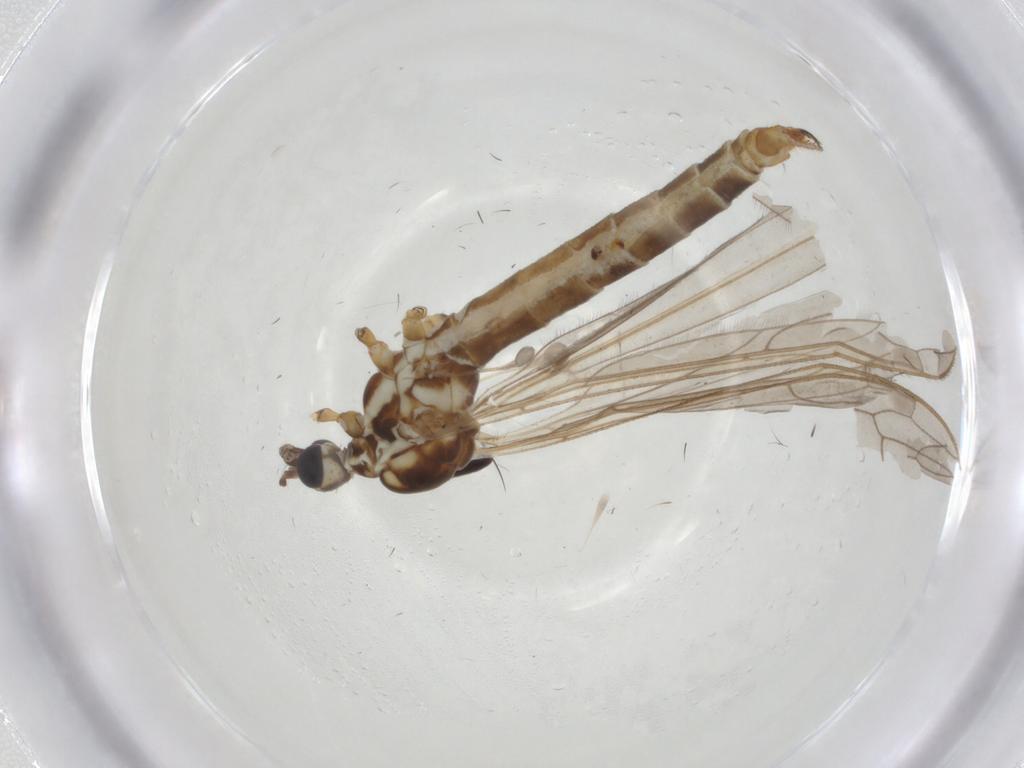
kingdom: Animalia
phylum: Arthropoda
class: Insecta
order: Diptera
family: Limoniidae
